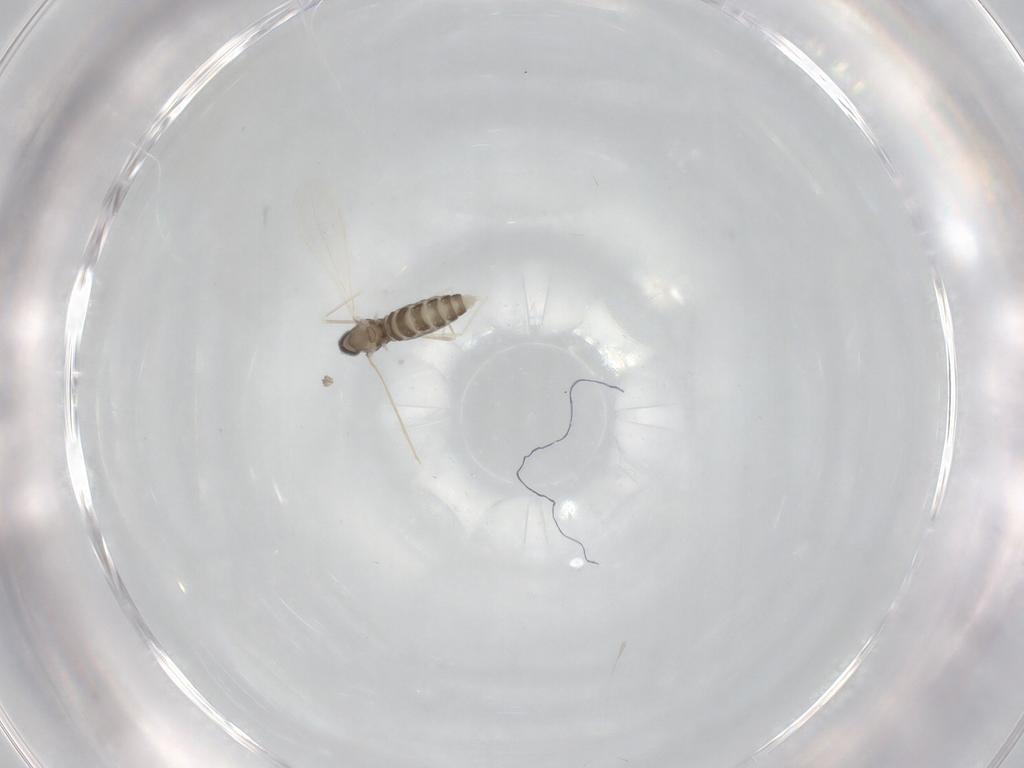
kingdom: Animalia
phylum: Arthropoda
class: Insecta
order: Diptera
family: Cecidomyiidae
